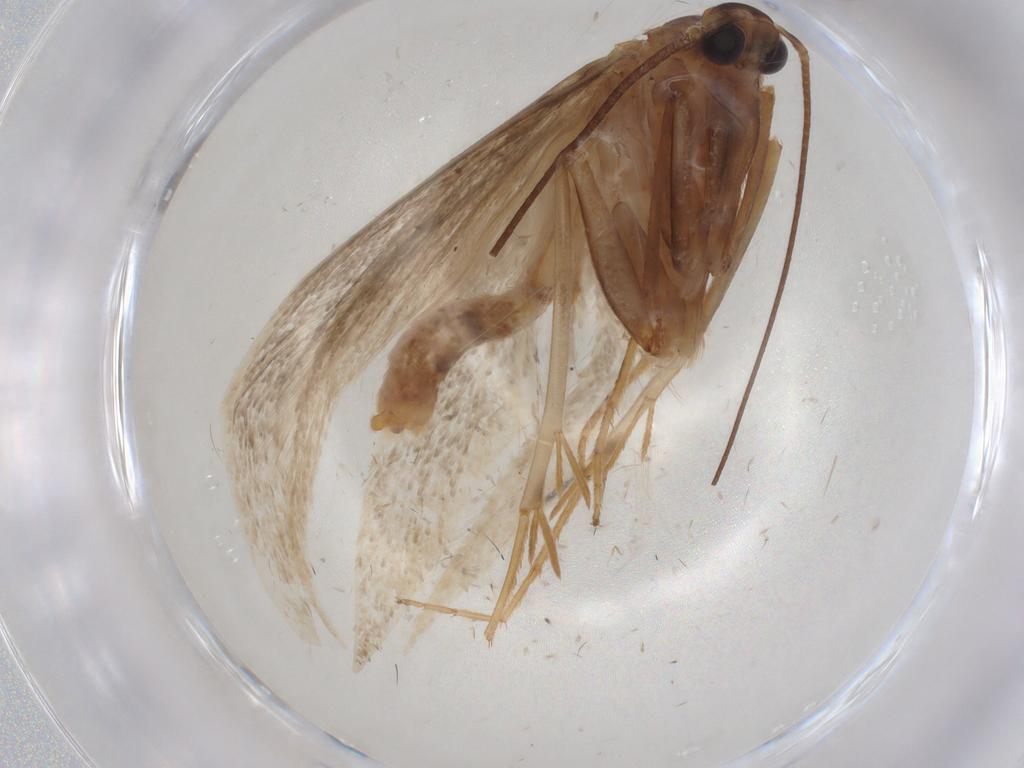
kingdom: Animalia
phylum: Arthropoda
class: Insecta
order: Lepidoptera
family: Coleophoridae
